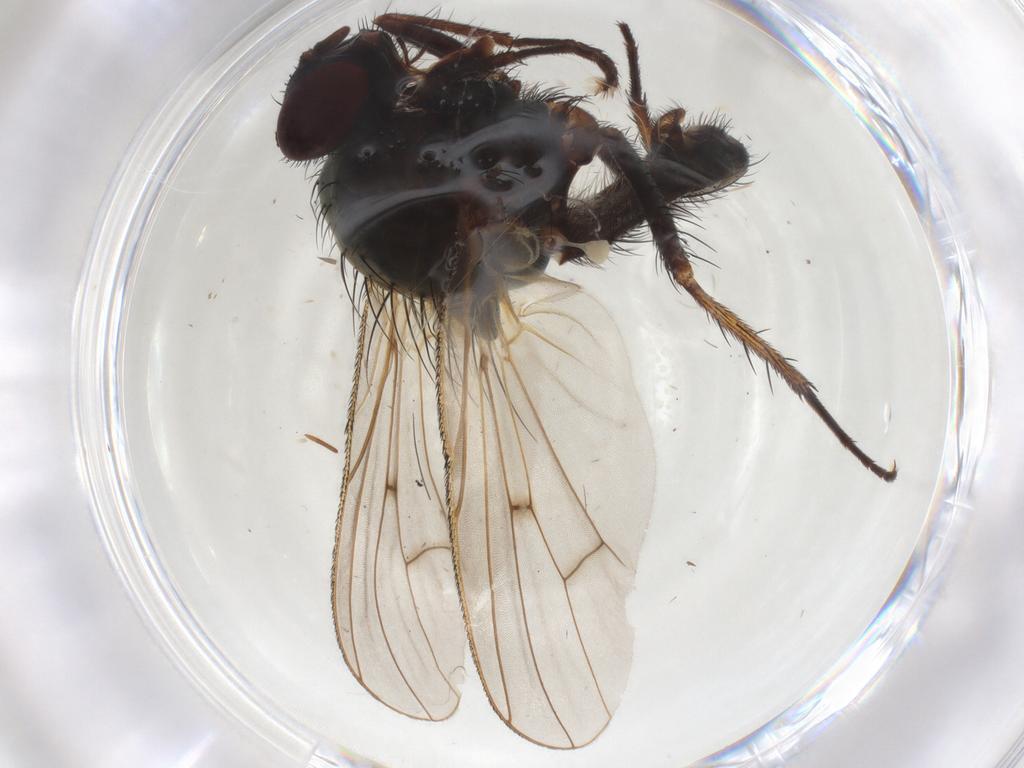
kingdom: Animalia
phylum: Arthropoda
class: Insecta
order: Diptera
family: Anthomyiidae
